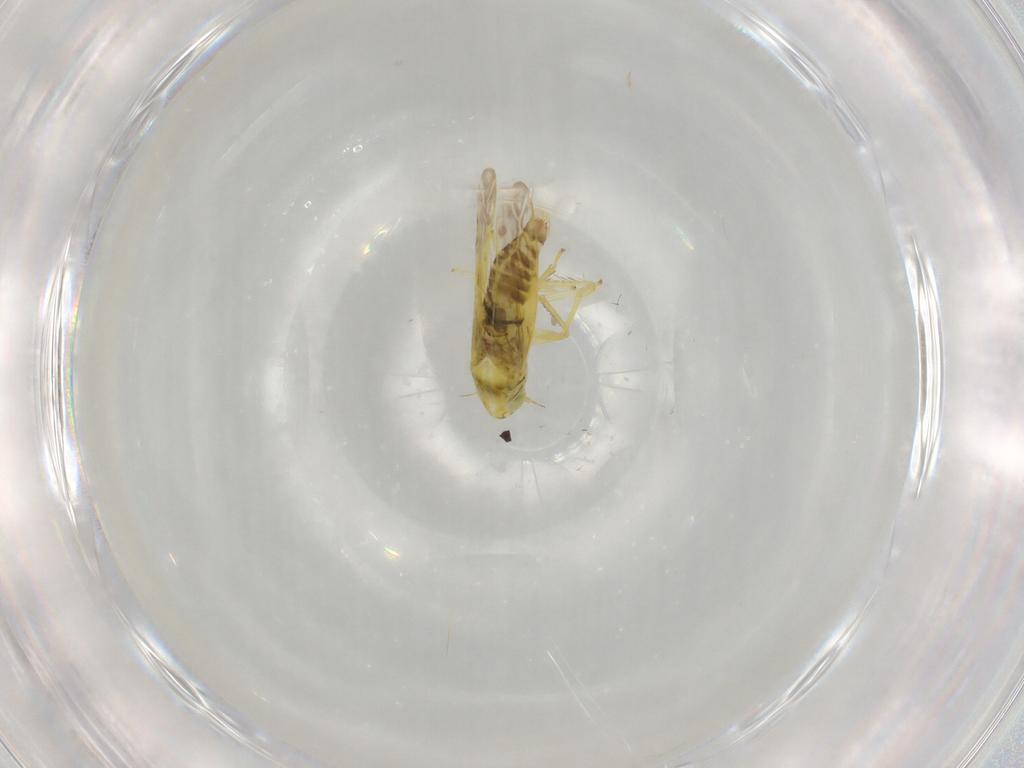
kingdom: Animalia
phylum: Arthropoda
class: Insecta
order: Hemiptera
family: Cicadellidae
